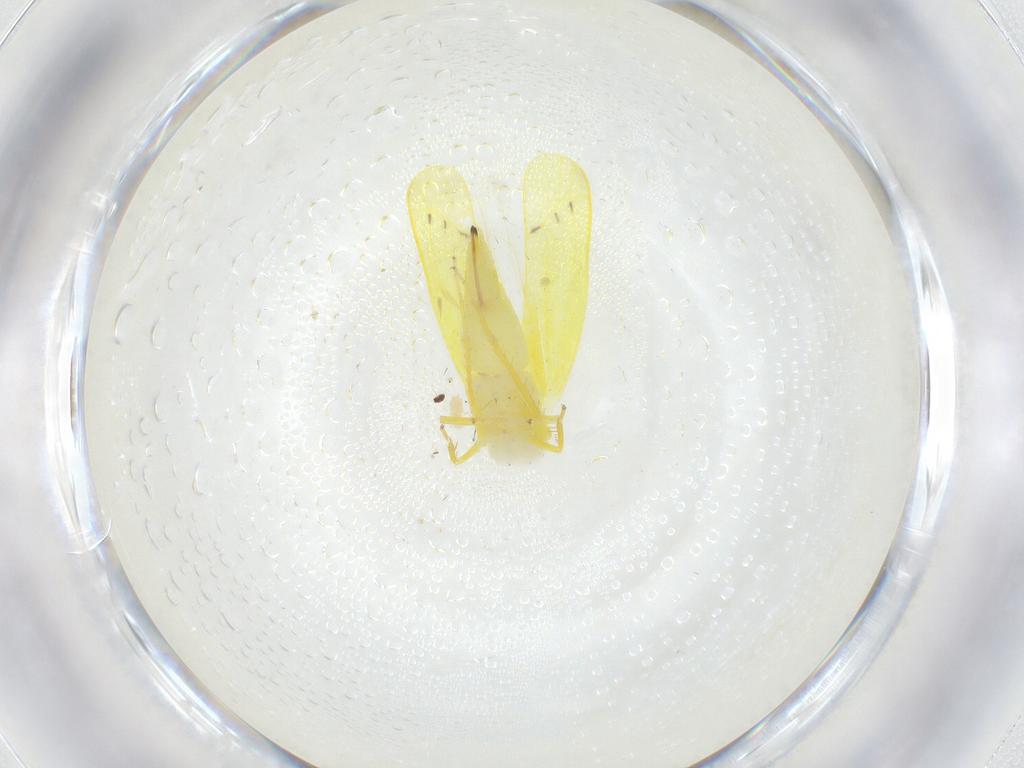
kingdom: Animalia
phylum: Arthropoda
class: Insecta
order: Hemiptera
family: Cicadellidae
